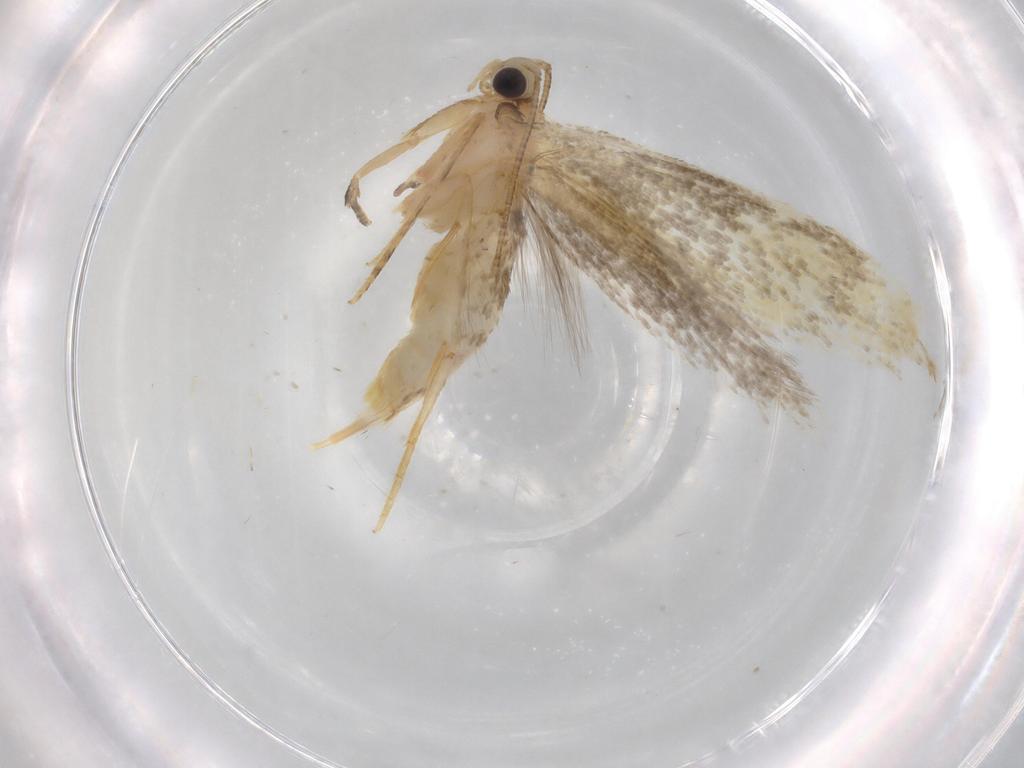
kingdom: Animalia
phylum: Arthropoda
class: Insecta
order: Lepidoptera
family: Tineidae
